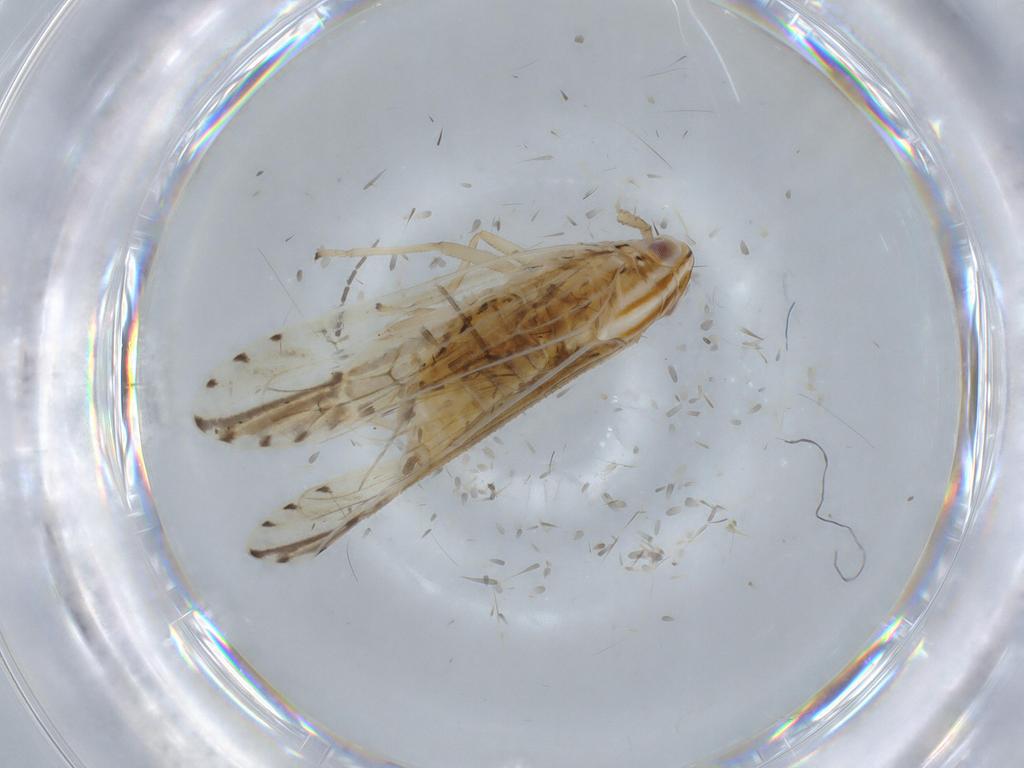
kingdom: Animalia
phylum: Arthropoda
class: Insecta
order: Hemiptera
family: Delphacidae
